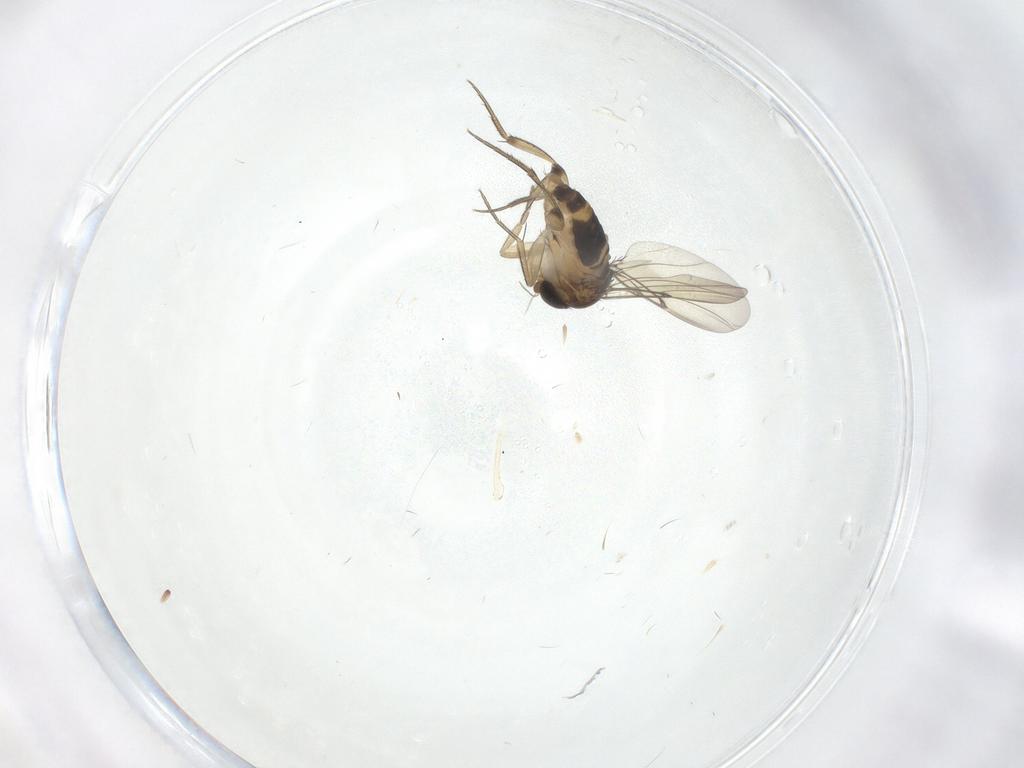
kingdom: Animalia
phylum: Arthropoda
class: Insecta
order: Diptera
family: Phoridae
